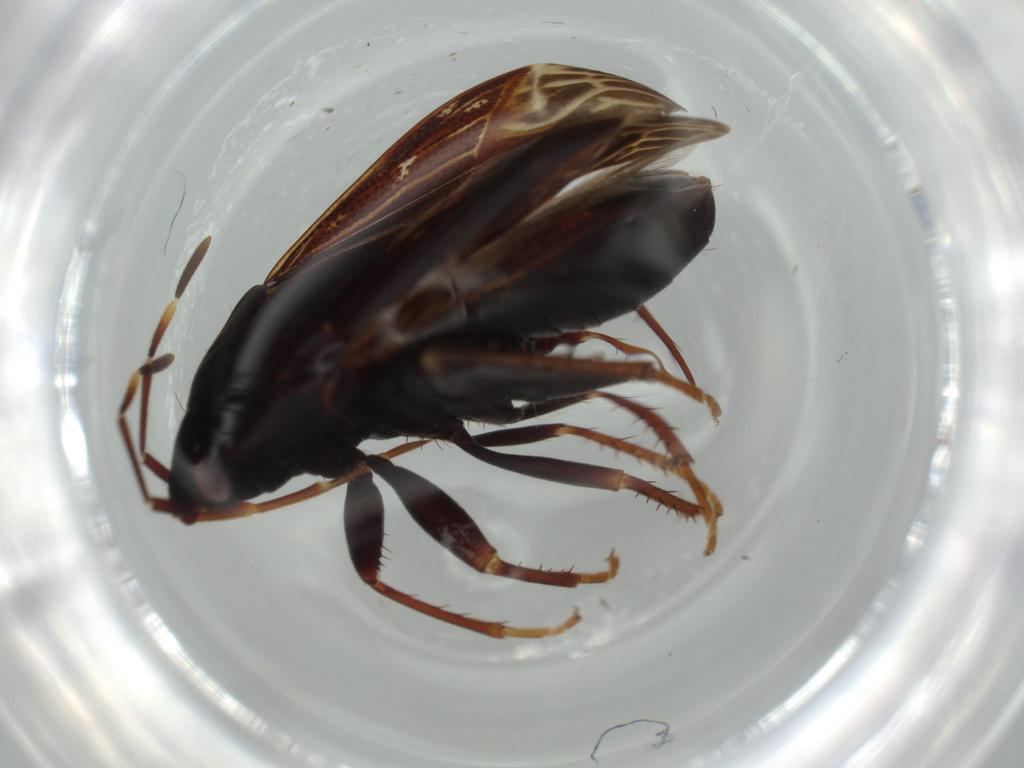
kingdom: Animalia
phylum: Arthropoda
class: Insecta
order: Hemiptera
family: Rhyparochromidae
